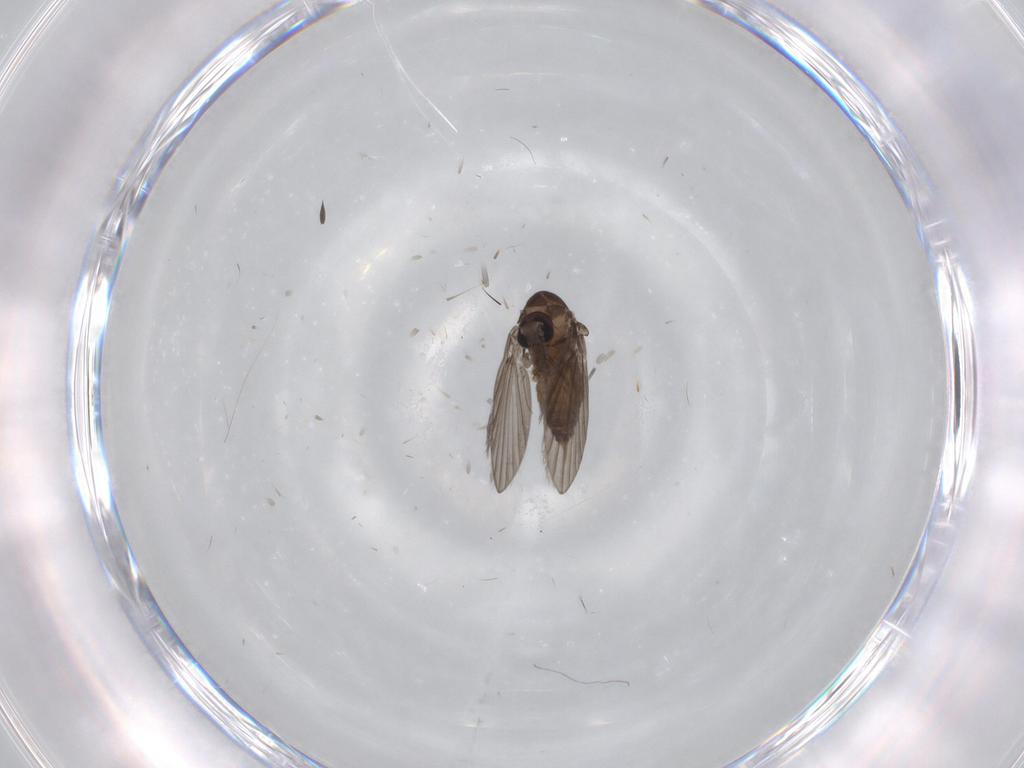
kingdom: Animalia
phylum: Arthropoda
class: Insecta
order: Diptera
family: Psychodidae
